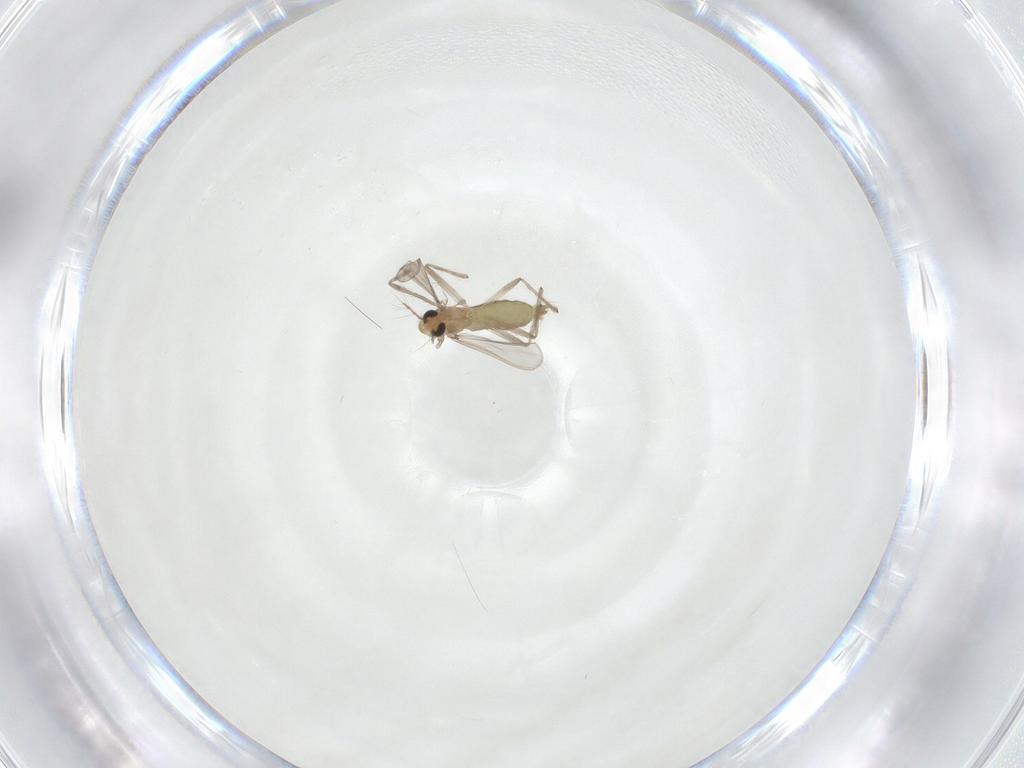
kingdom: Animalia
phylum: Arthropoda
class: Insecta
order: Diptera
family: Chironomidae
